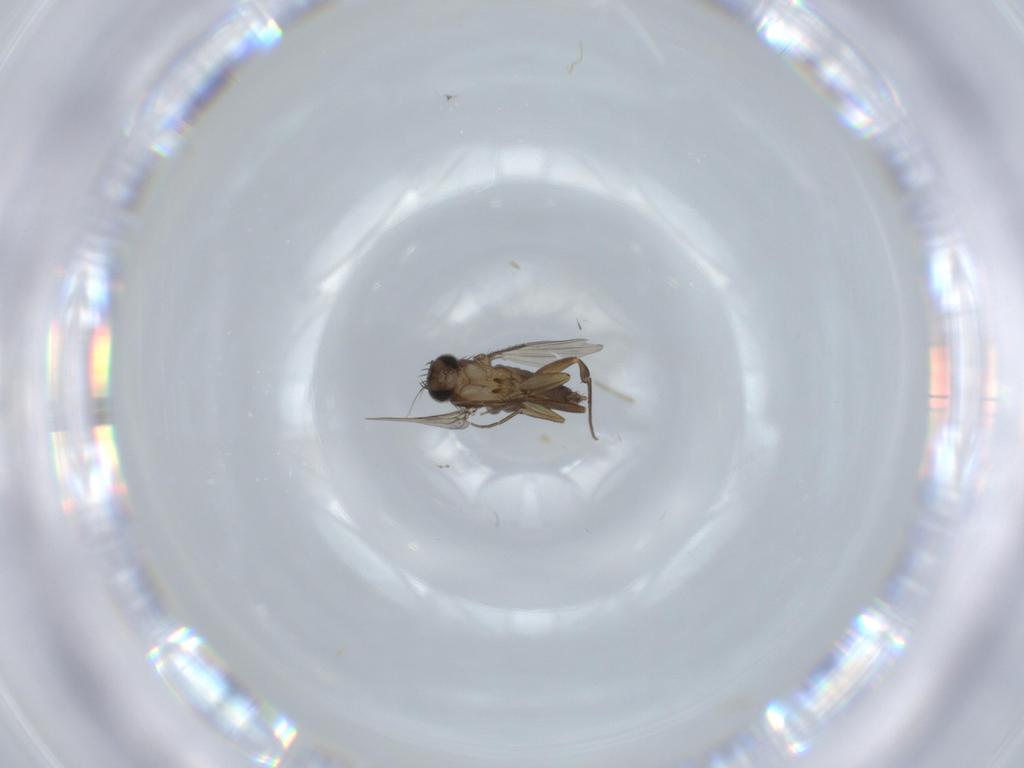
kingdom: Animalia
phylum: Arthropoda
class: Insecta
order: Diptera
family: Phoridae
